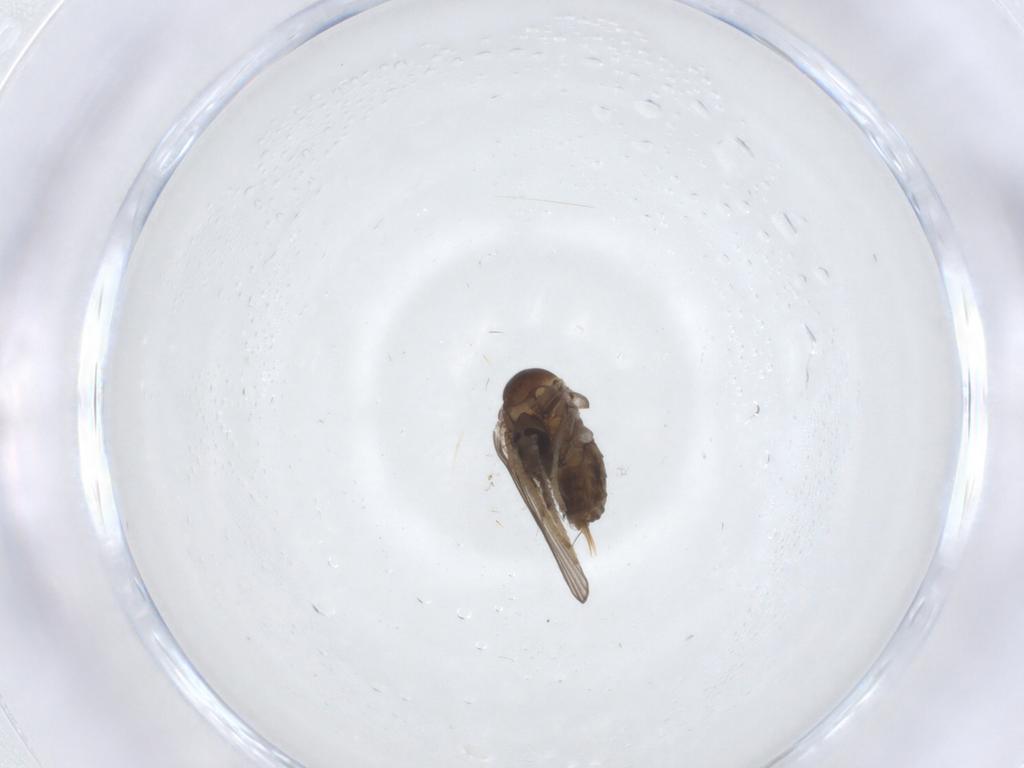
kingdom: Animalia
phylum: Arthropoda
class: Insecta
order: Diptera
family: Psychodidae
